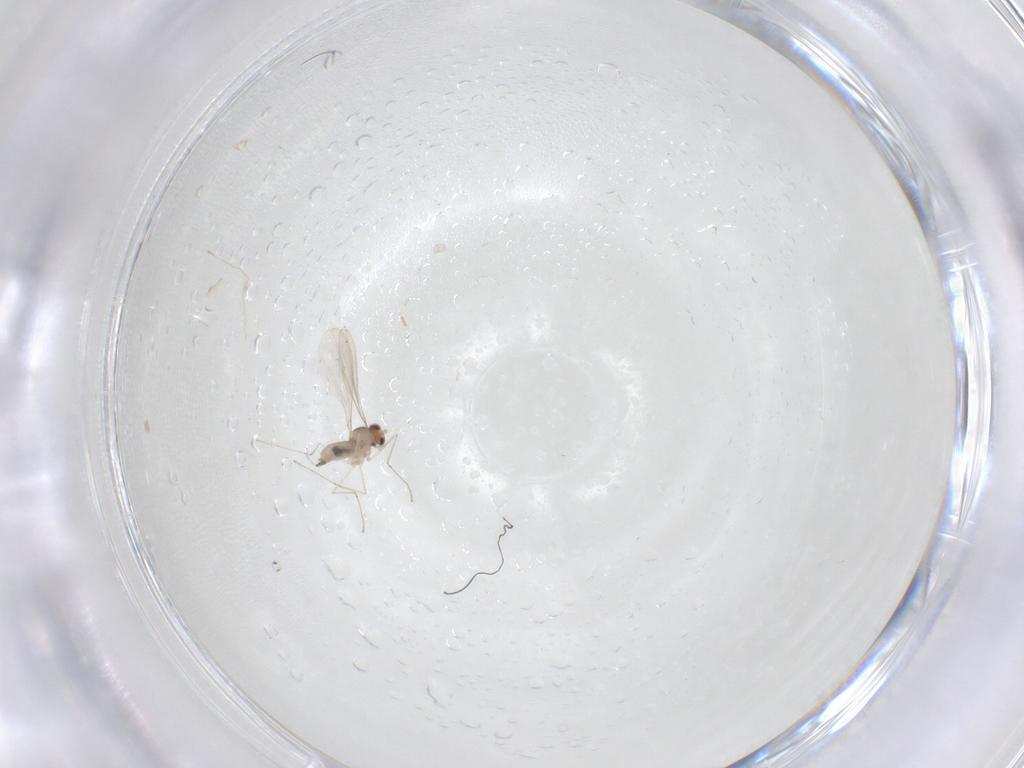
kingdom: Animalia
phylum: Arthropoda
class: Insecta
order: Diptera
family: Cecidomyiidae
